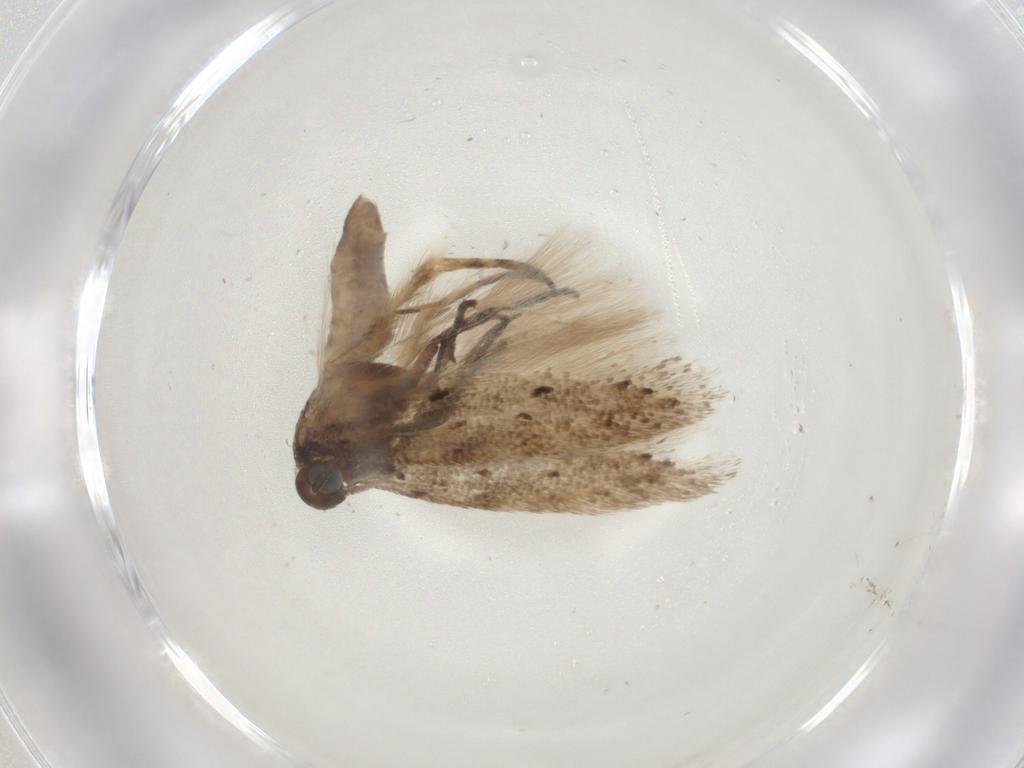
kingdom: Animalia
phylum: Arthropoda
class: Insecta
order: Lepidoptera
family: Gelechiidae
